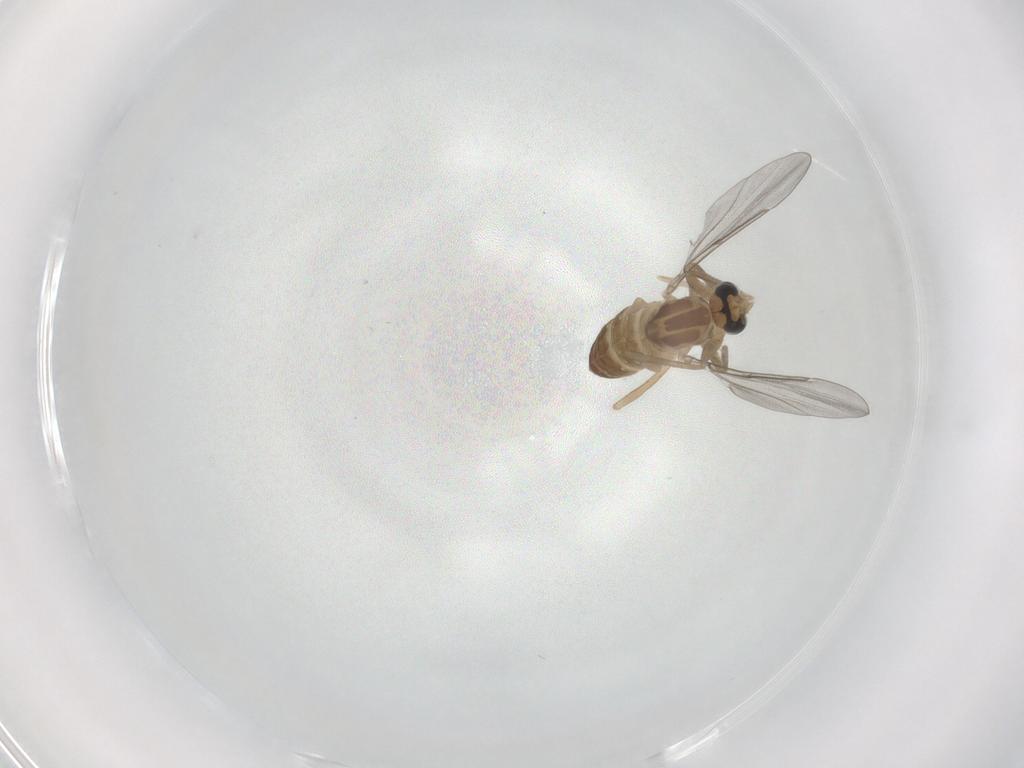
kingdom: Animalia
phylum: Arthropoda
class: Insecta
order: Diptera
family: Cecidomyiidae
